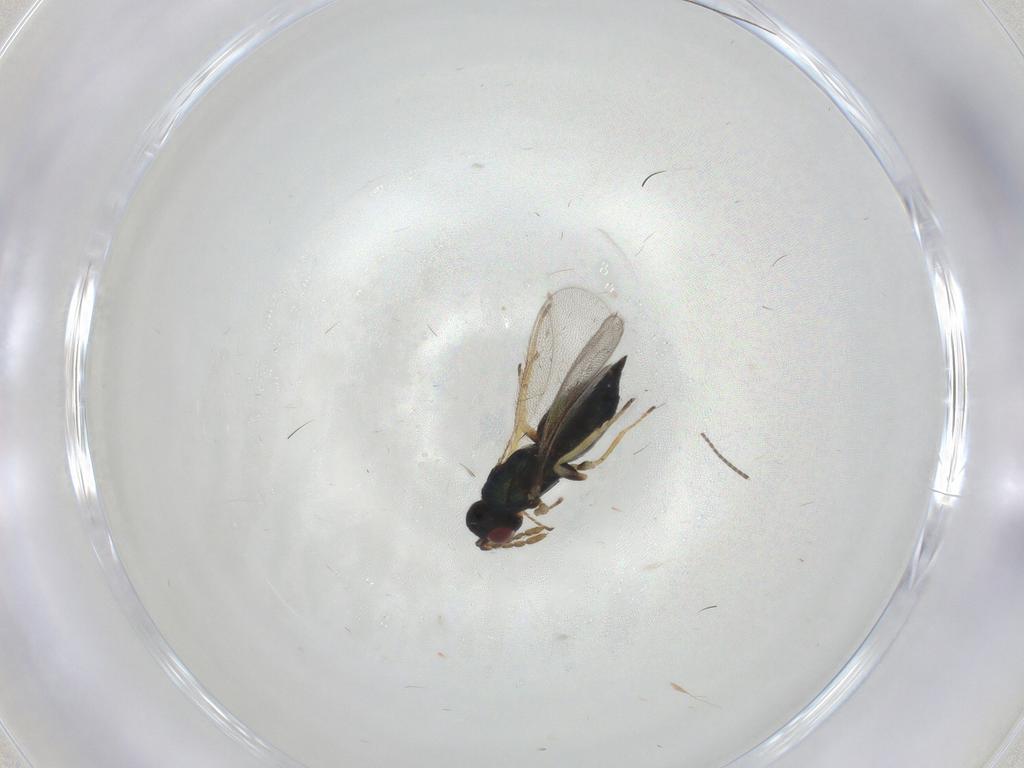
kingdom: Animalia
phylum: Arthropoda
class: Insecta
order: Hymenoptera
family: Eulophidae
